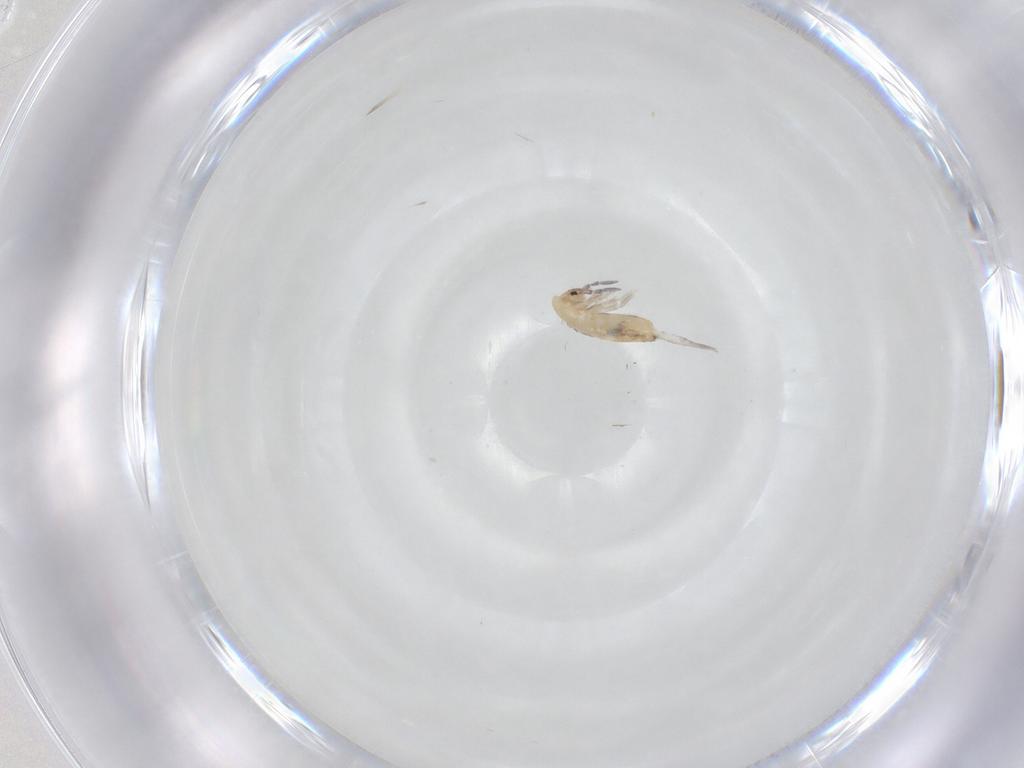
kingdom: Animalia
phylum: Arthropoda
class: Collembola
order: Entomobryomorpha
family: Entomobryidae
